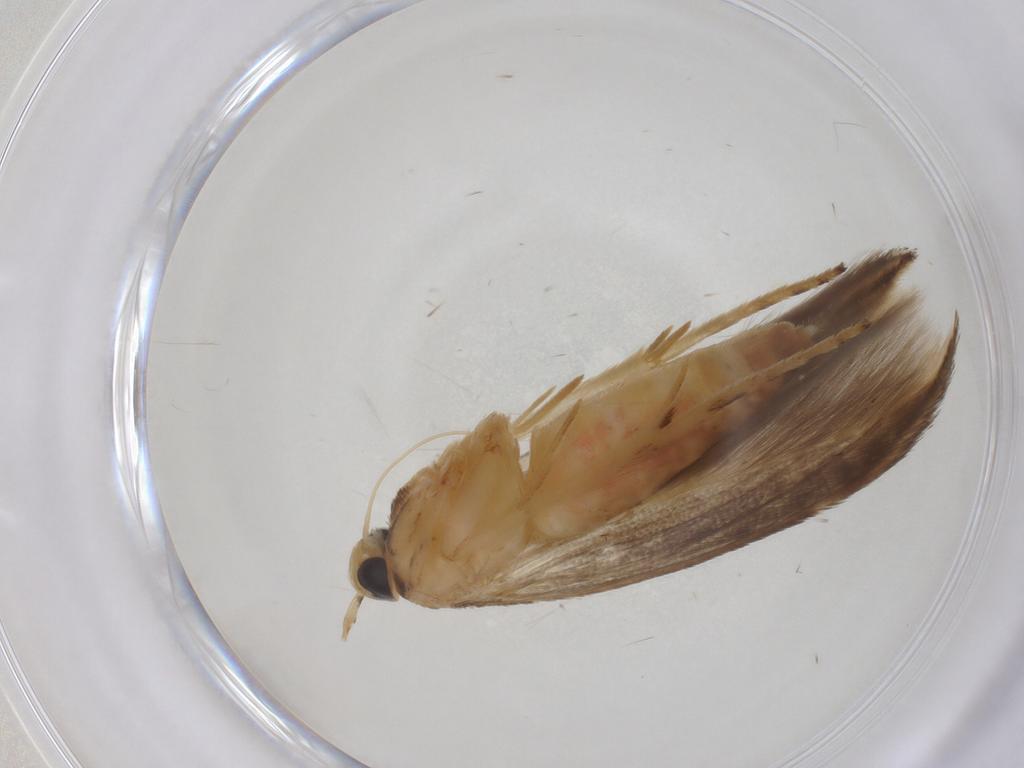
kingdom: Animalia
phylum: Arthropoda
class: Insecta
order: Lepidoptera
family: Momphidae
